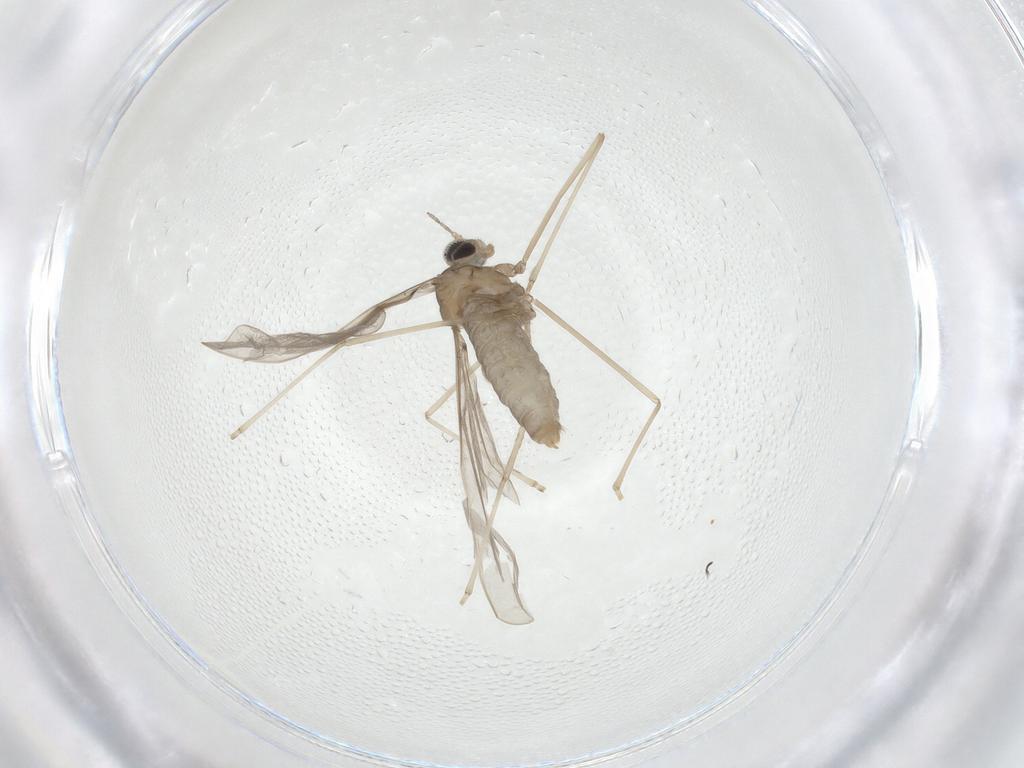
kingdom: Animalia
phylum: Arthropoda
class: Insecta
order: Diptera
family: Cecidomyiidae
